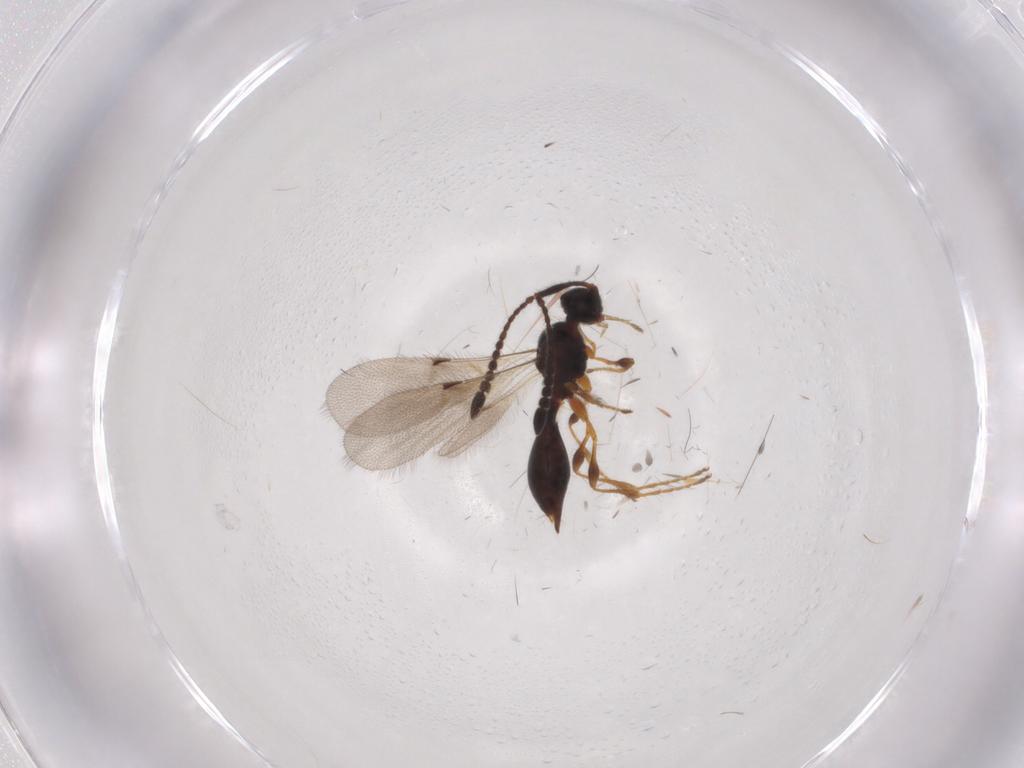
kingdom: Animalia
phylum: Arthropoda
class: Insecta
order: Hymenoptera
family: Diapriidae
